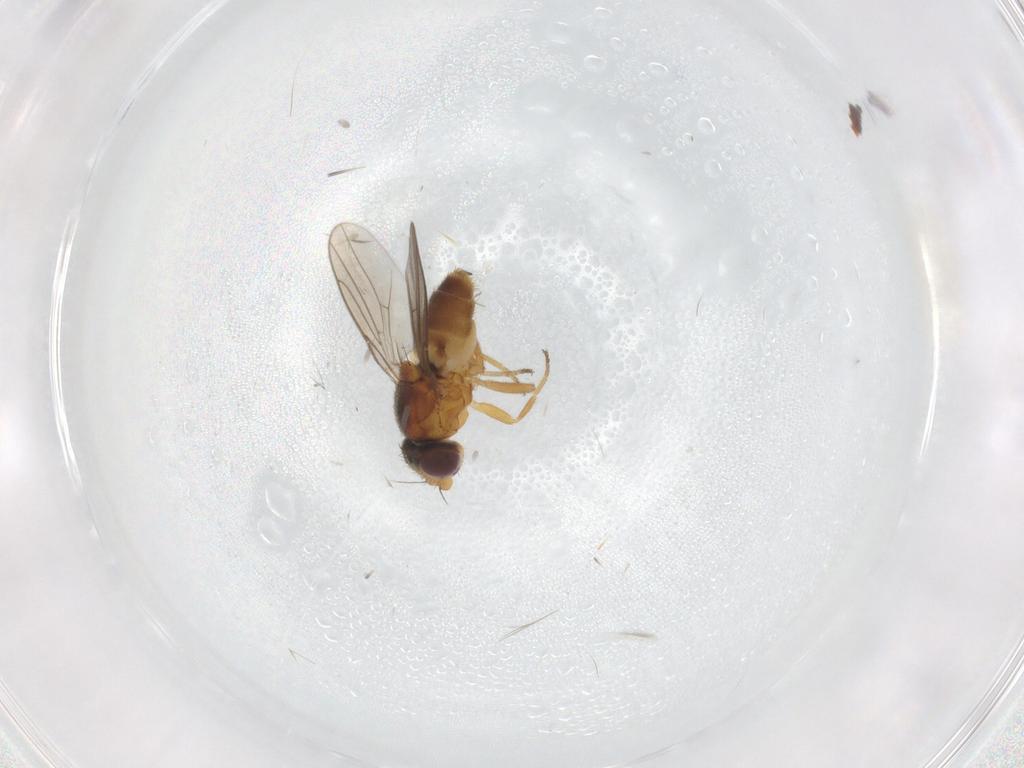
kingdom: Animalia
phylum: Arthropoda
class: Insecta
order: Diptera
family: Chloropidae
